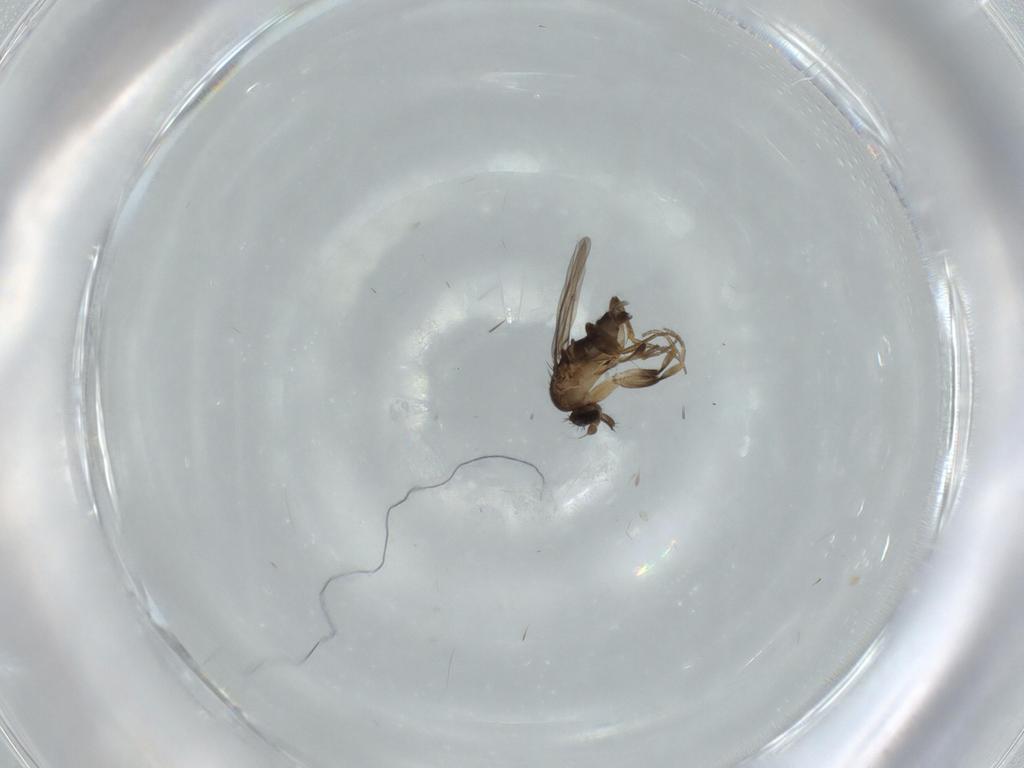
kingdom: Animalia
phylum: Arthropoda
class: Insecta
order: Diptera
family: Phoridae
